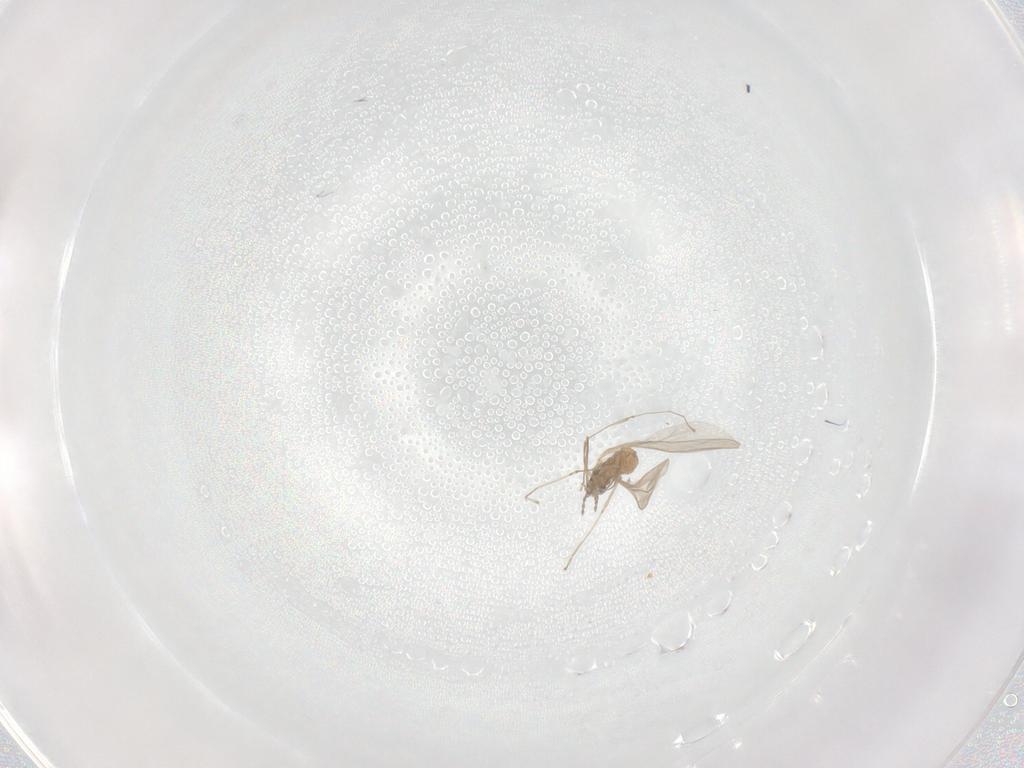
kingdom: Animalia
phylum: Arthropoda
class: Insecta
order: Diptera
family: Cecidomyiidae
